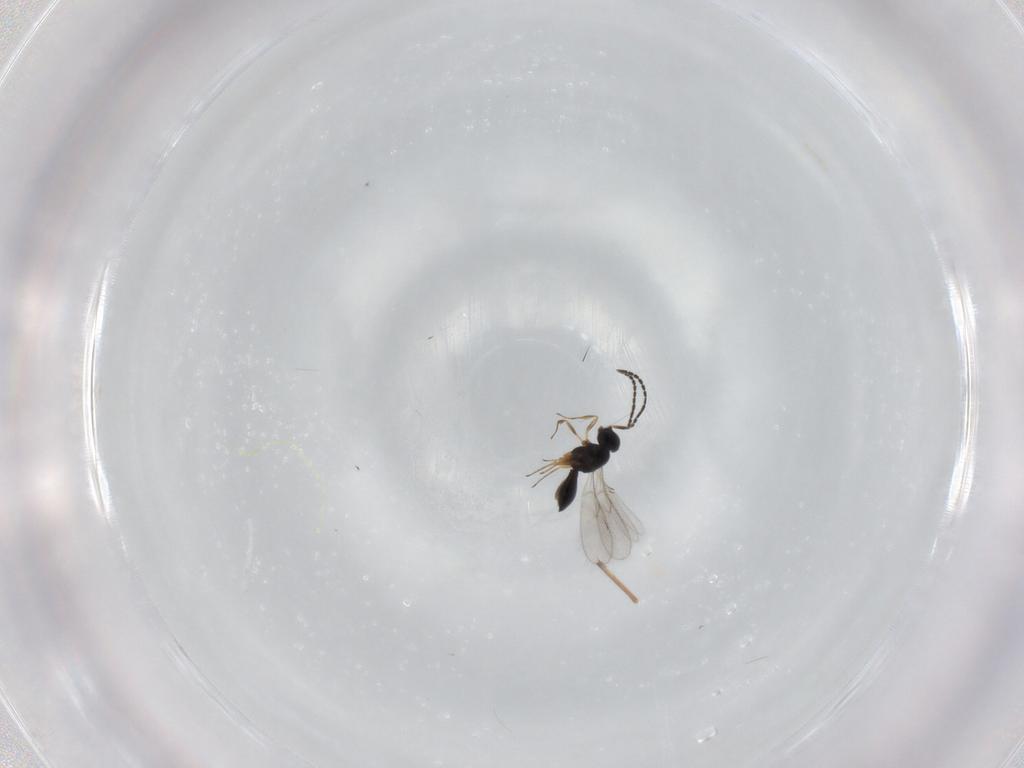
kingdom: Animalia
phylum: Arthropoda
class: Insecta
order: Hymenoptera
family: Scelionidae
